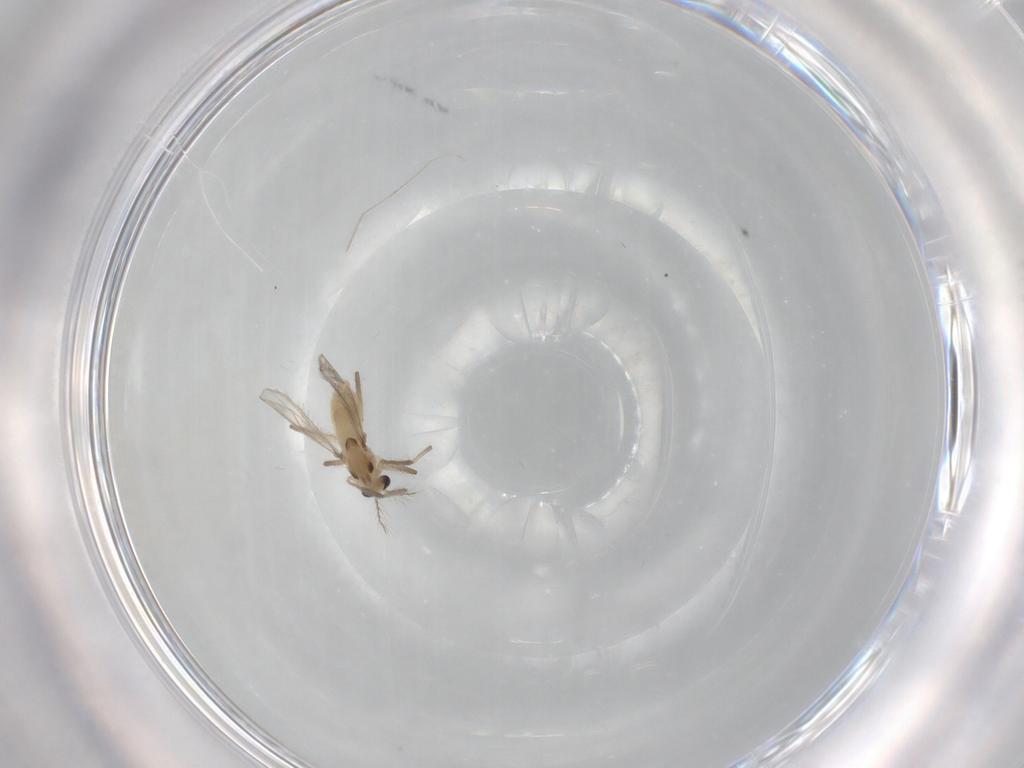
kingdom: Animalia
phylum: Arthropoda
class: Insecta
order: Diptera
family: Chironomidae
